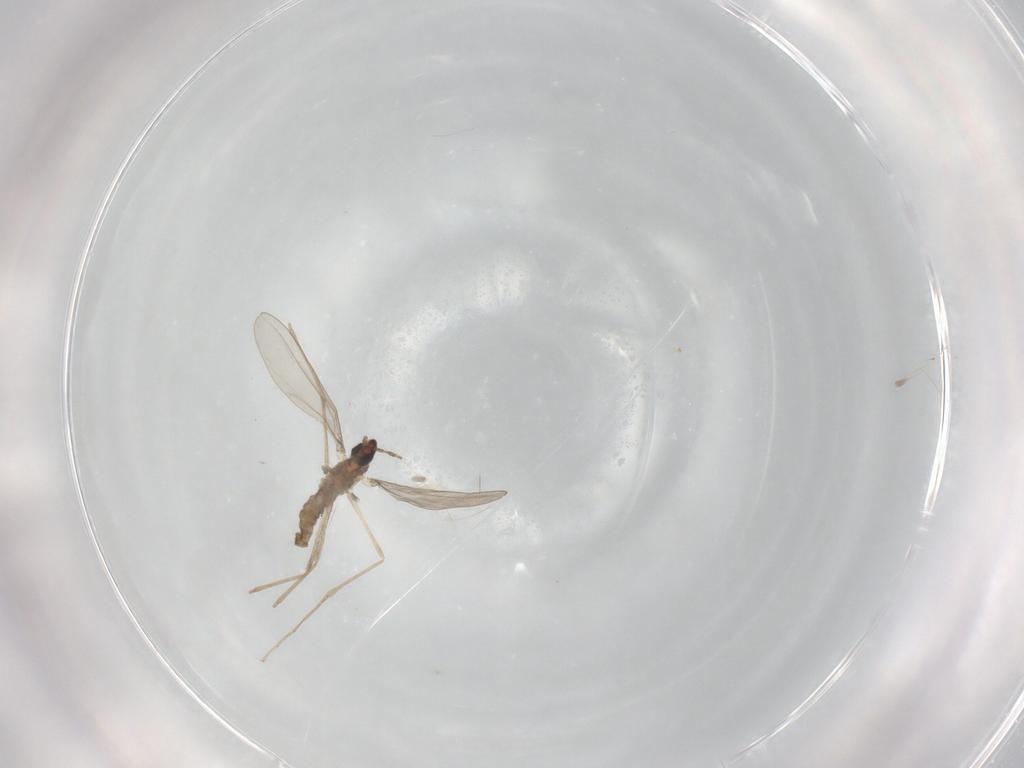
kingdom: Animalia
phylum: Arthropoda
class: Insecta
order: Diptera
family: Cecidomyiidae
